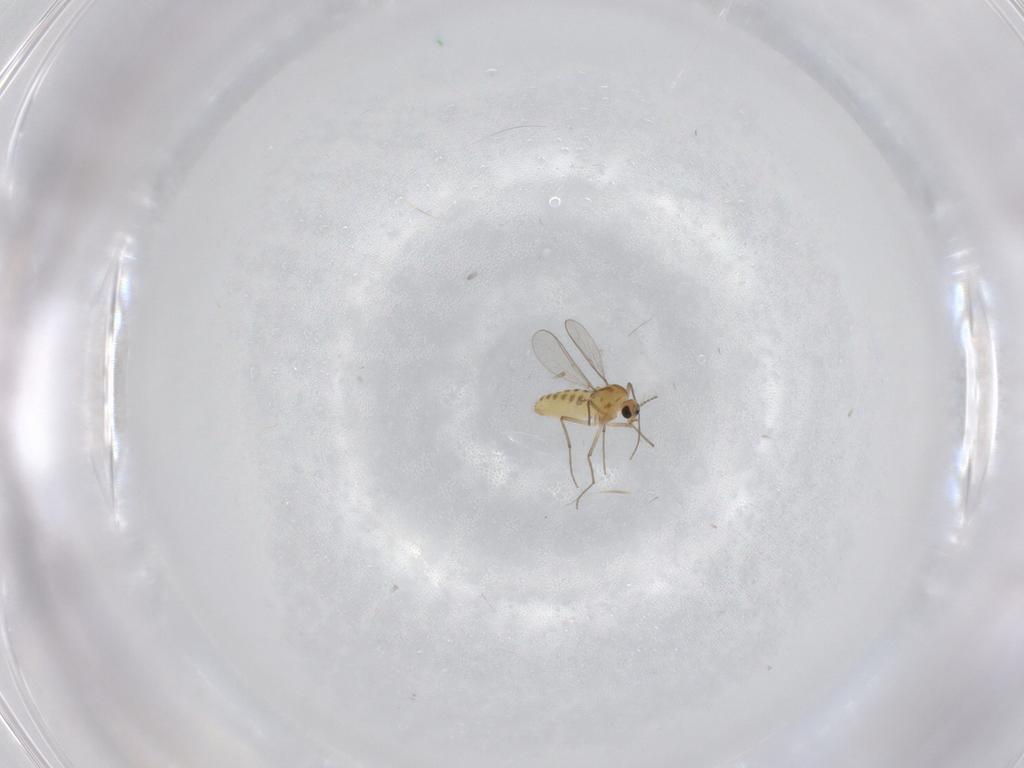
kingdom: Animalia
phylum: Arthropoda
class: Insecta
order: Diptera
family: Chironomidae
